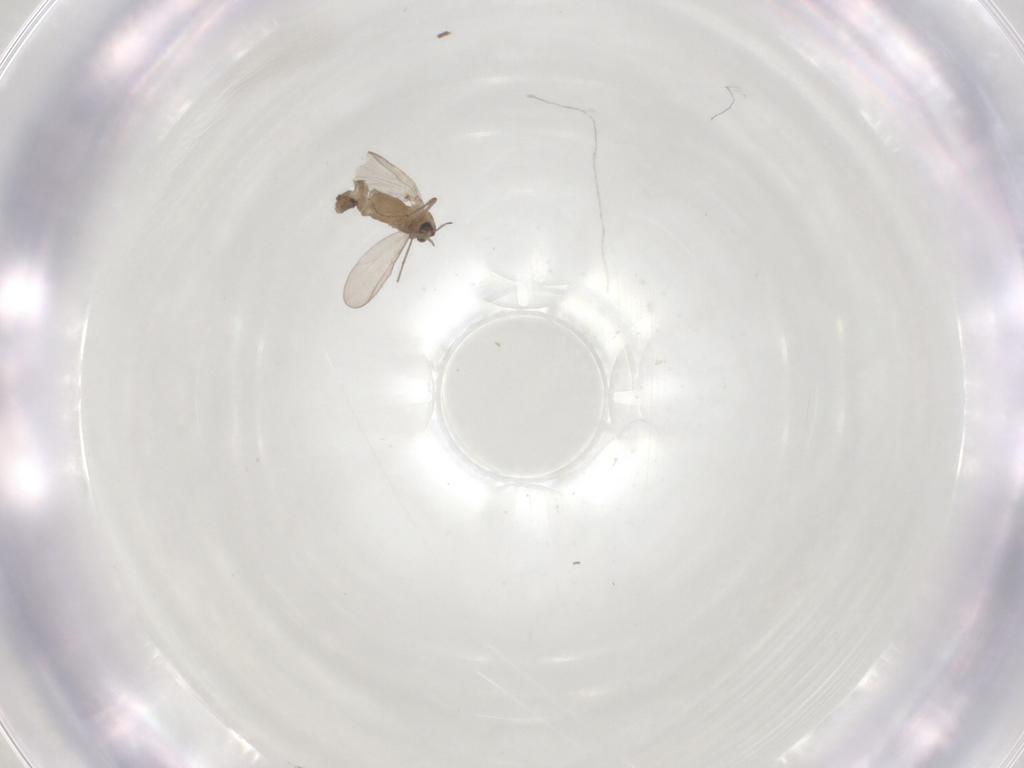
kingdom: Animalia
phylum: Arthropoda
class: Insecta
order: Diptera
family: Chironomidae
